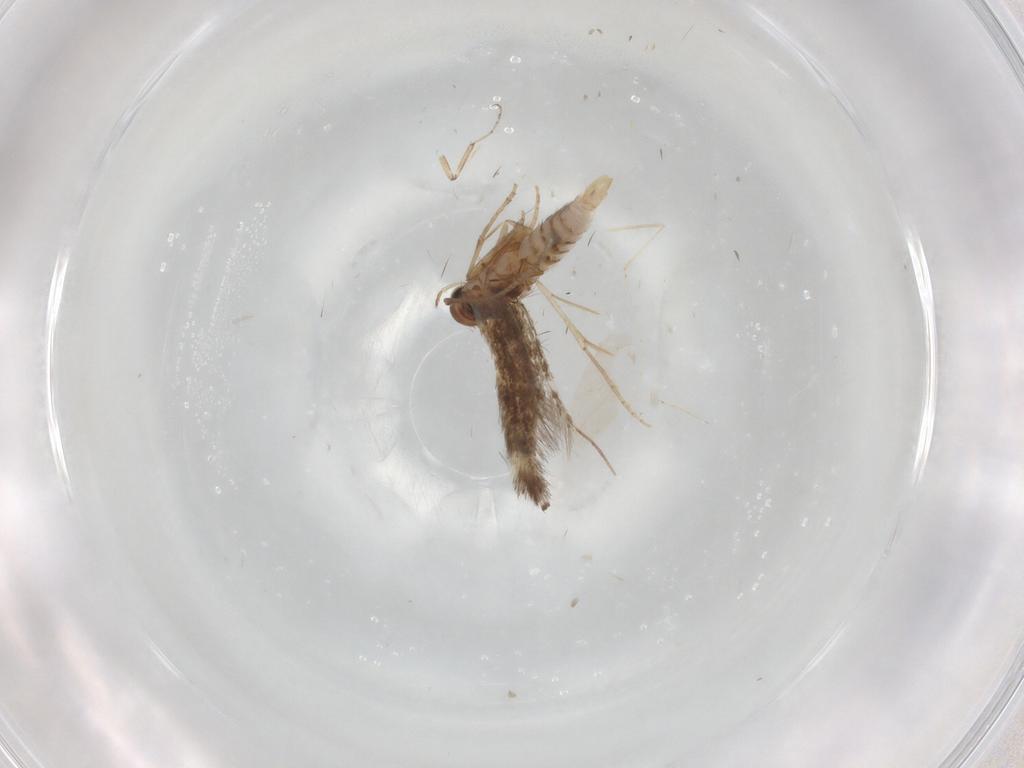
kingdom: Animalia
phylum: Arthropoda
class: Insecta
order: Lepidoptera
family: Elachistidae
